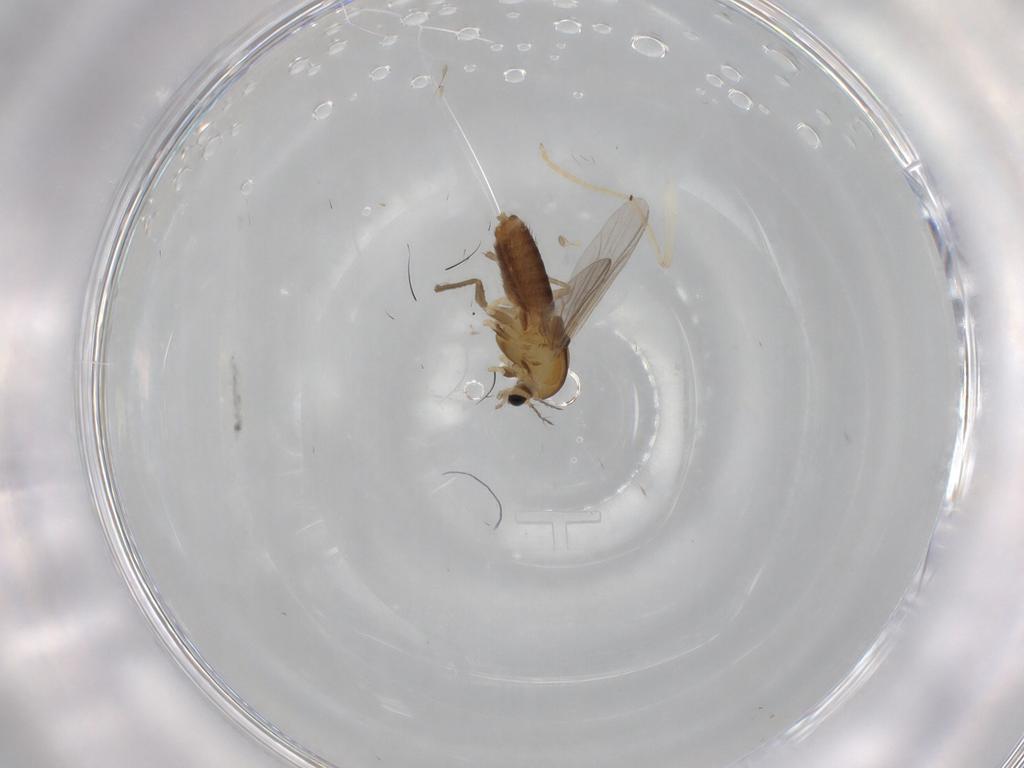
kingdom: Animalia
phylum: Arthropoda
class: Insecta
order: Diptera
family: Chironomidae
